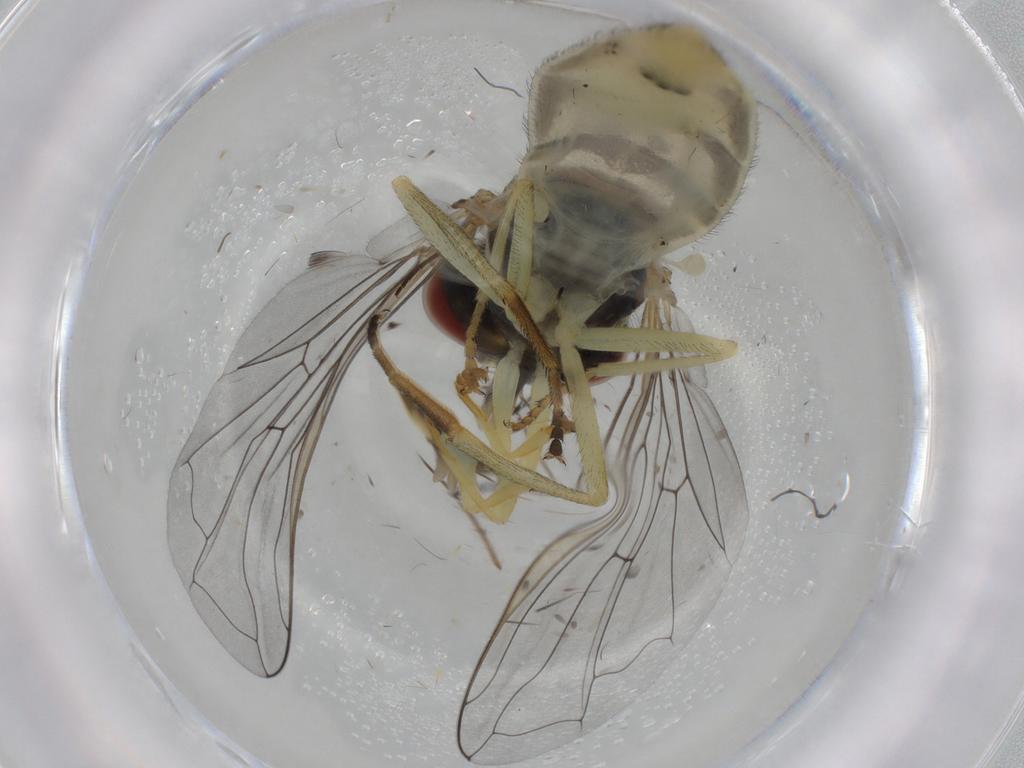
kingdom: Animalia
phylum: Arthropoda
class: Insecta
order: Diptera
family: Syrphidae
